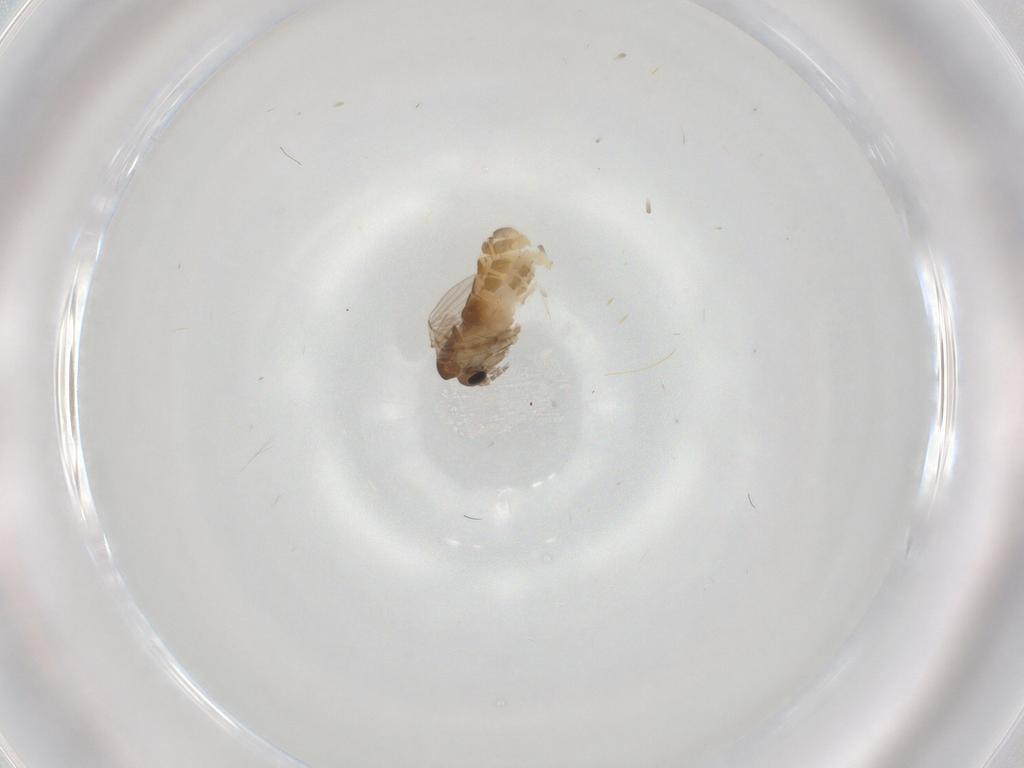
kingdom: Animalia
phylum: Arthropoda
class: Insecta
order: Diptera
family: Psychodidae
